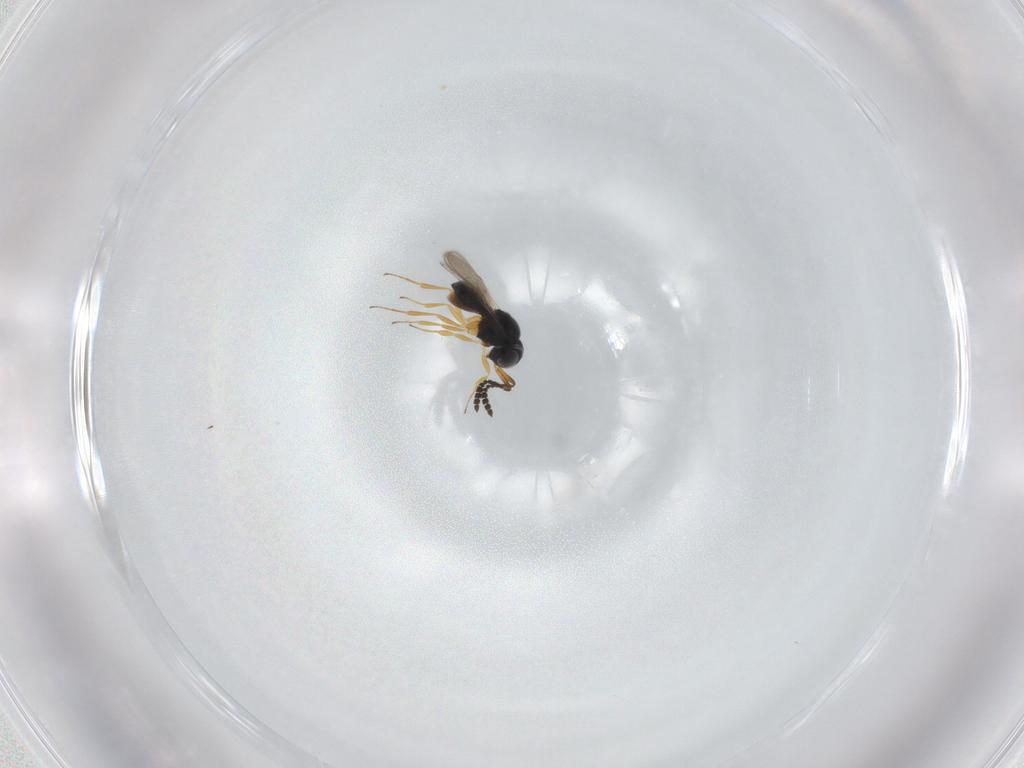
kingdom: Animalia
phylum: Arthropoda
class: Insecta
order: Hymenoptera
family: Scelionidae
